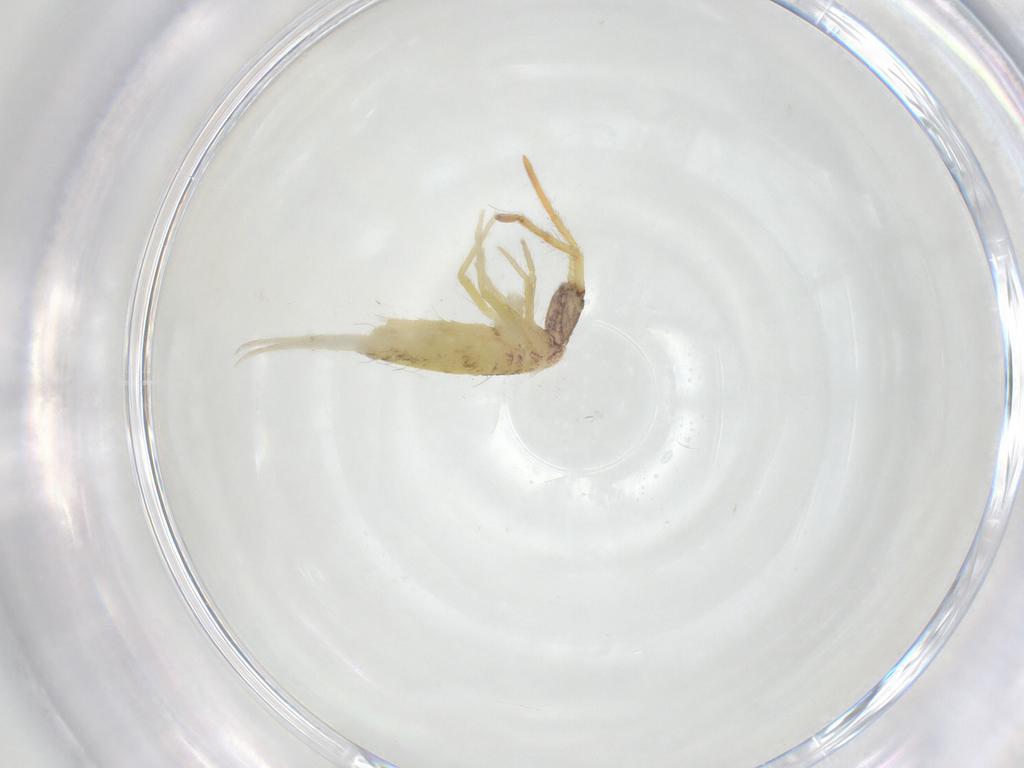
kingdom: Animalia
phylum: Arthropoda
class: Collembola
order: Entomobryomorpha
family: Entomobryidae
